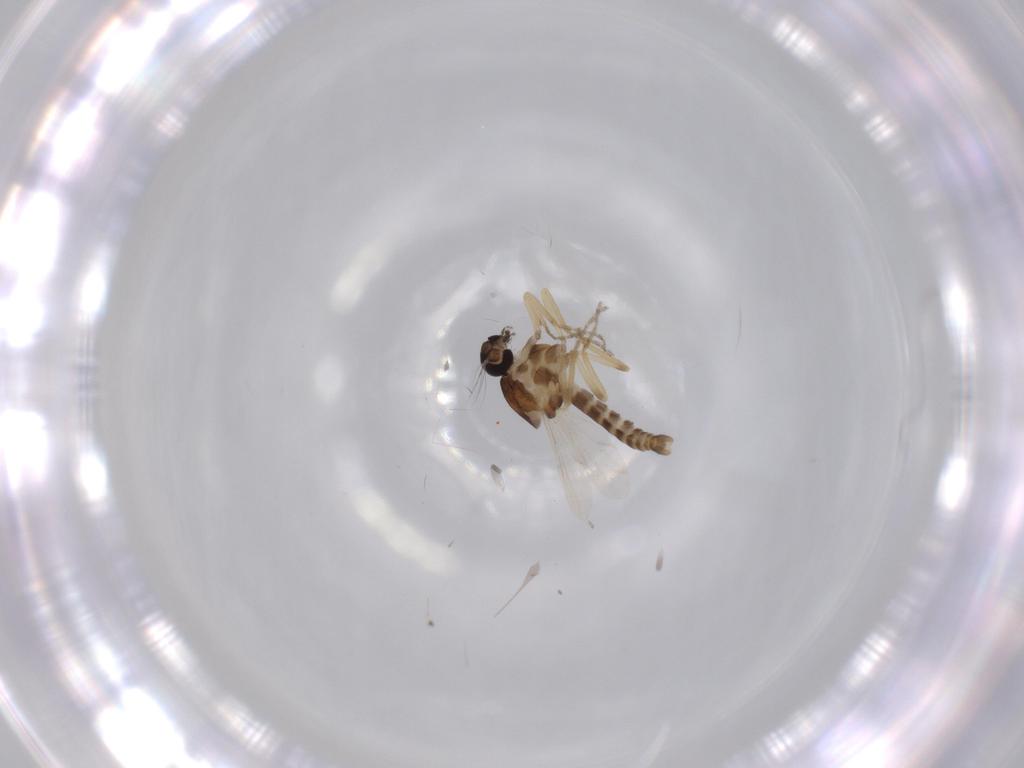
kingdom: Animalia
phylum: Arthropoda
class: Insecta
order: Diptera
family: Ceratopogonidae
